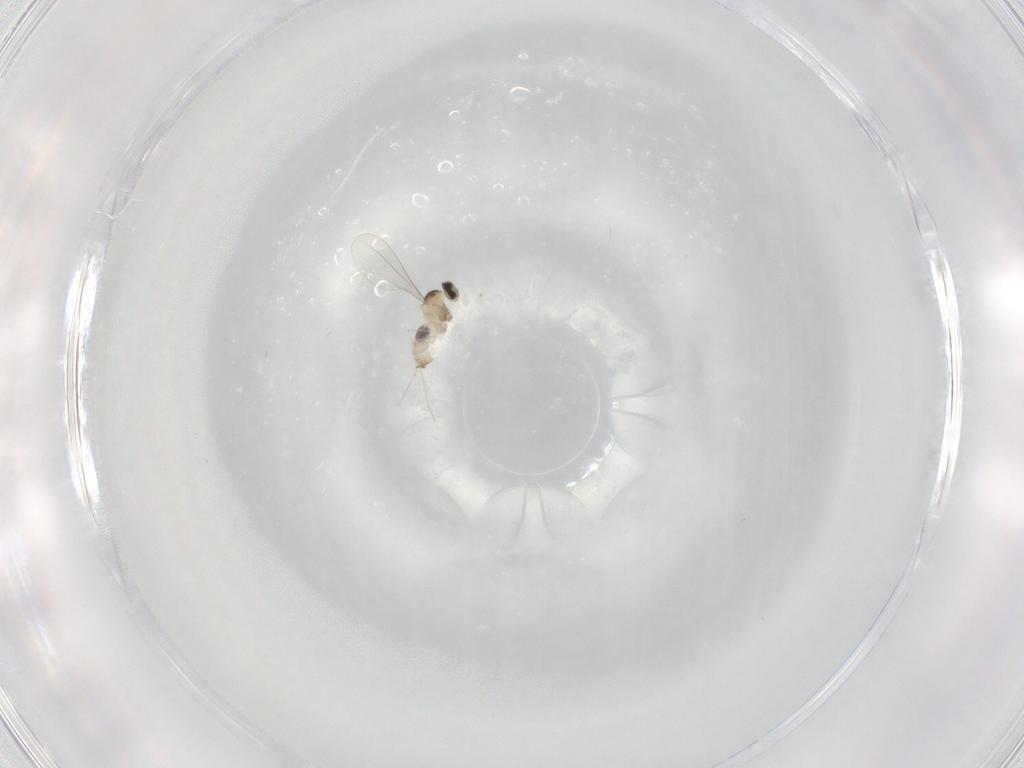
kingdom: Animalia
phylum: Arthropoda
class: Insecta
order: Diptera
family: Cecidomyiidae
